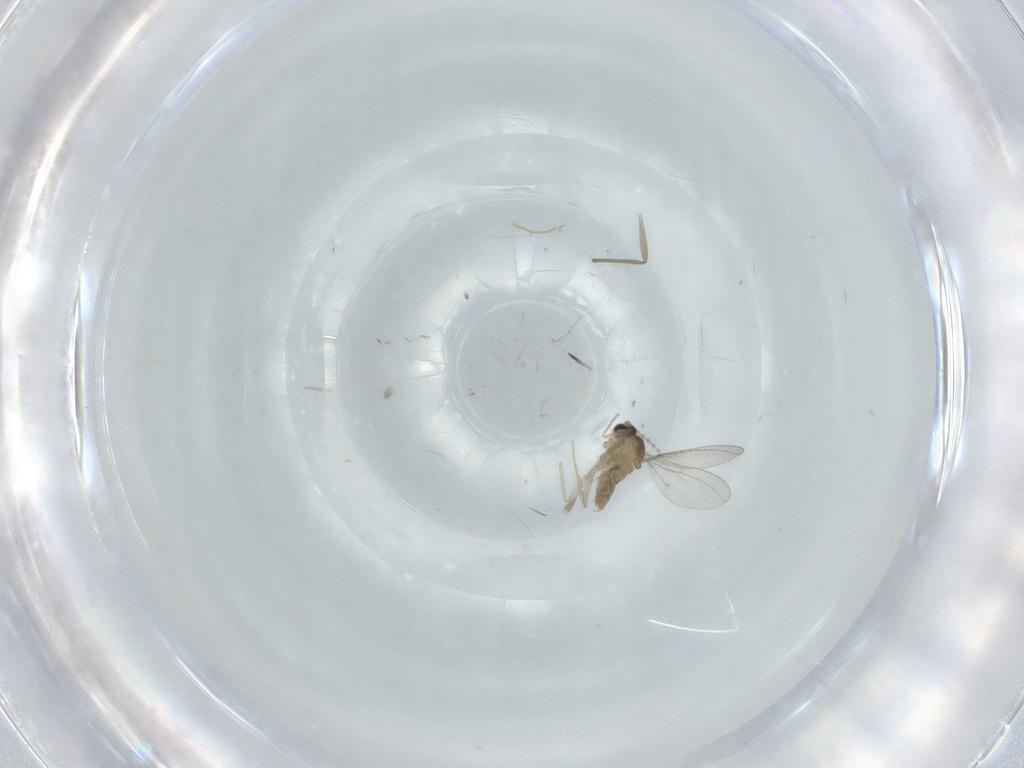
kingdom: Animalia
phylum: Arthropoda
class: Insecta
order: Diptera
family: Cecidomyiidae
